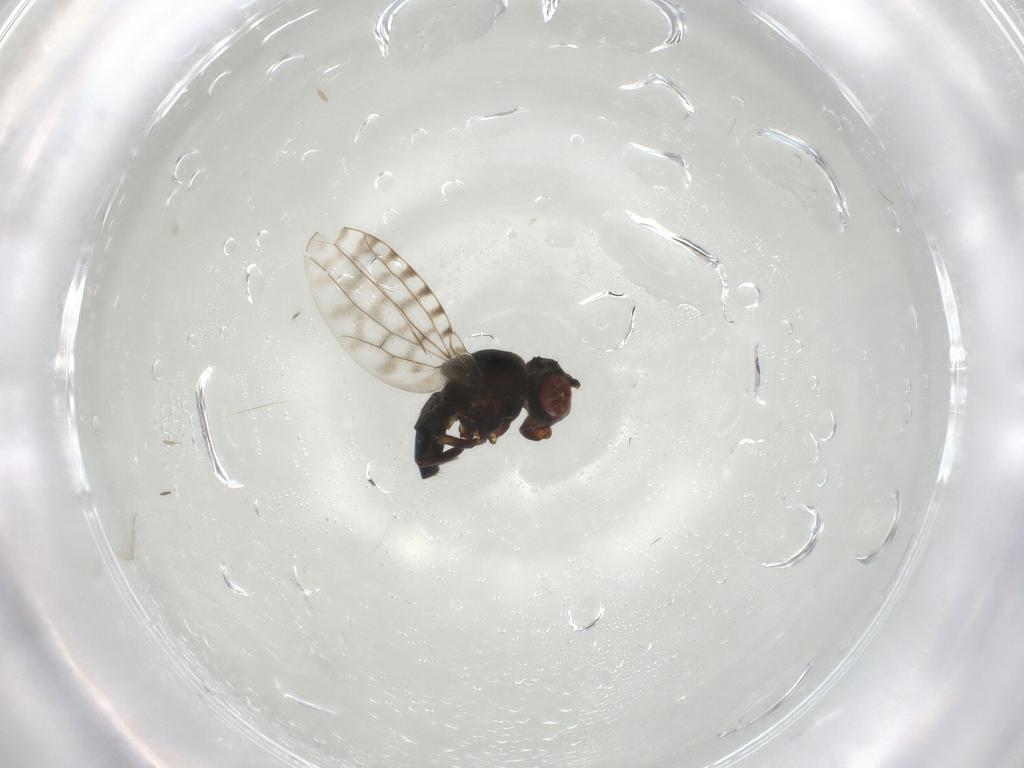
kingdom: Animalia
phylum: Arthropoda
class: Insecta
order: Diptera
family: Ephydridae
